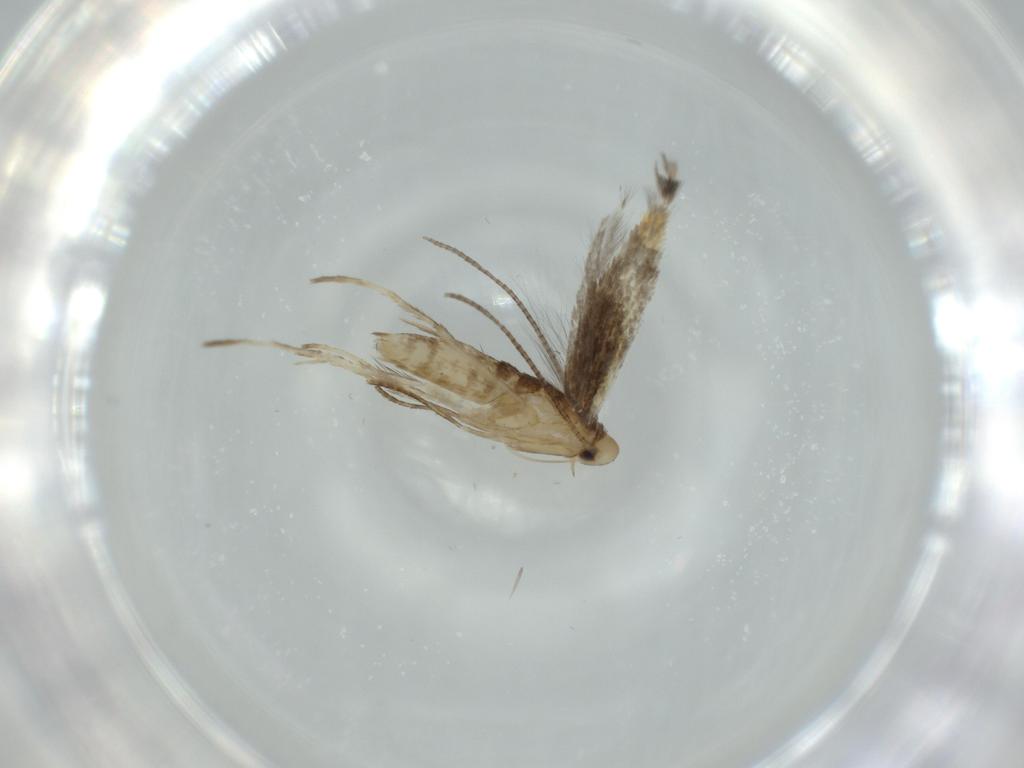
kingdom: Animalia
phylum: Arthropoda
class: Insecta
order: Lepidoptera
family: Gracillariidae
